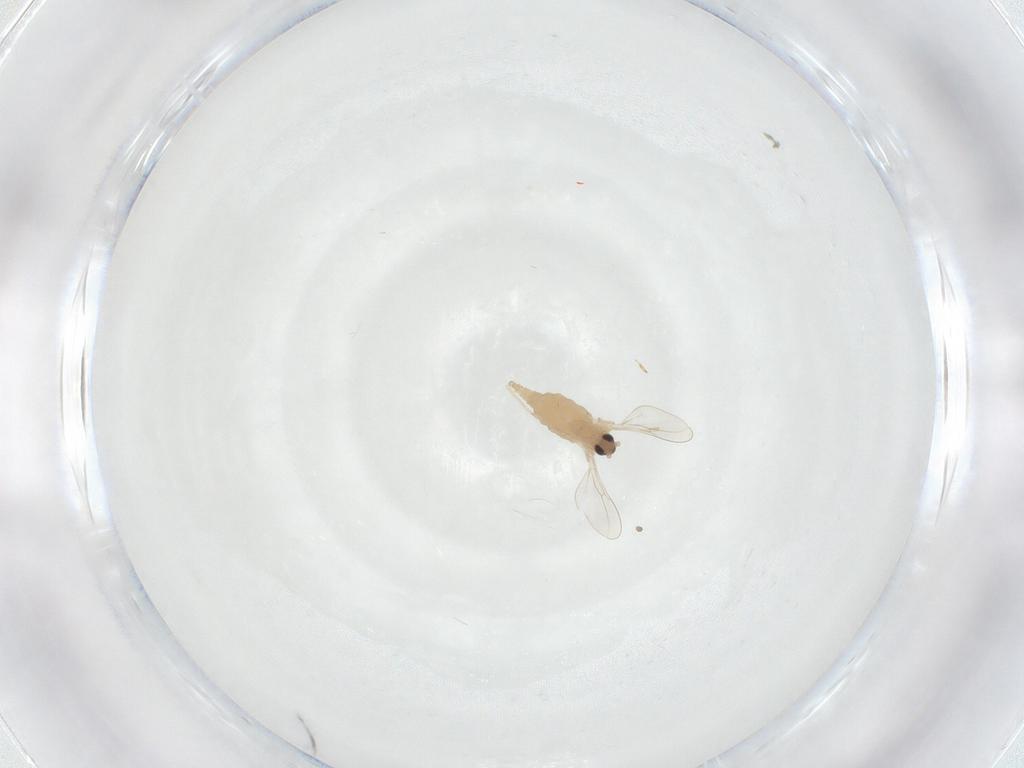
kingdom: Animalia
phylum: Arthropoda
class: Insecta
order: Diptera
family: Cecidomyiidae
